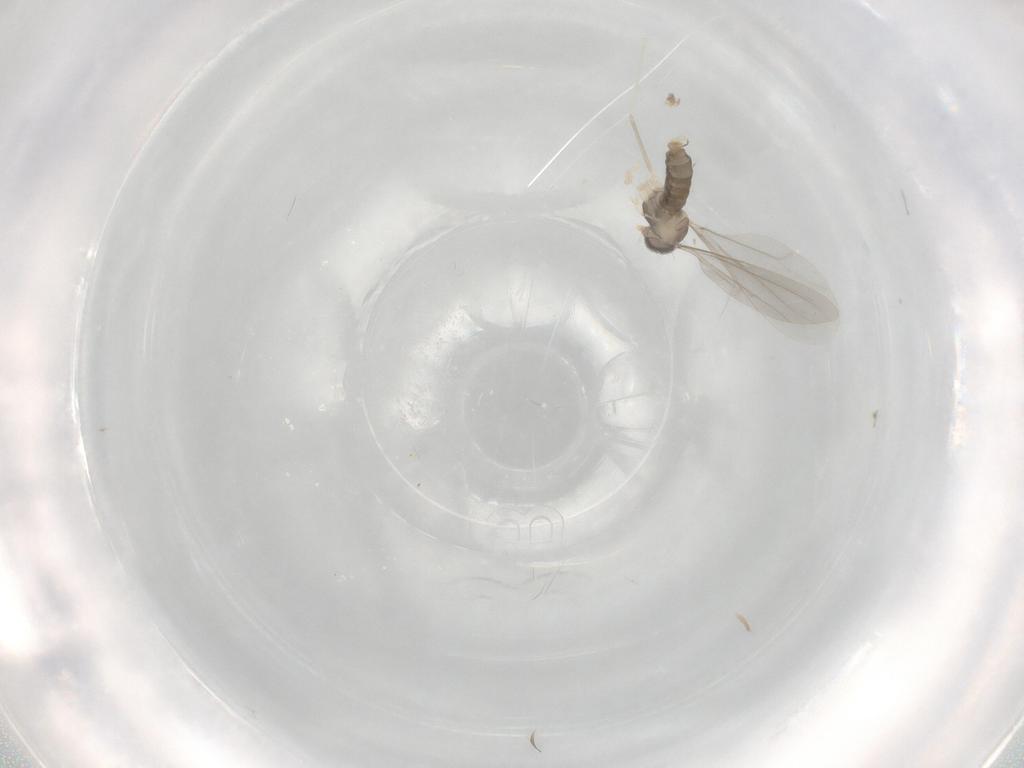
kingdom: Animalia
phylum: Arthropoda
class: Insecta
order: Diptera
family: Cecidomyiidae
